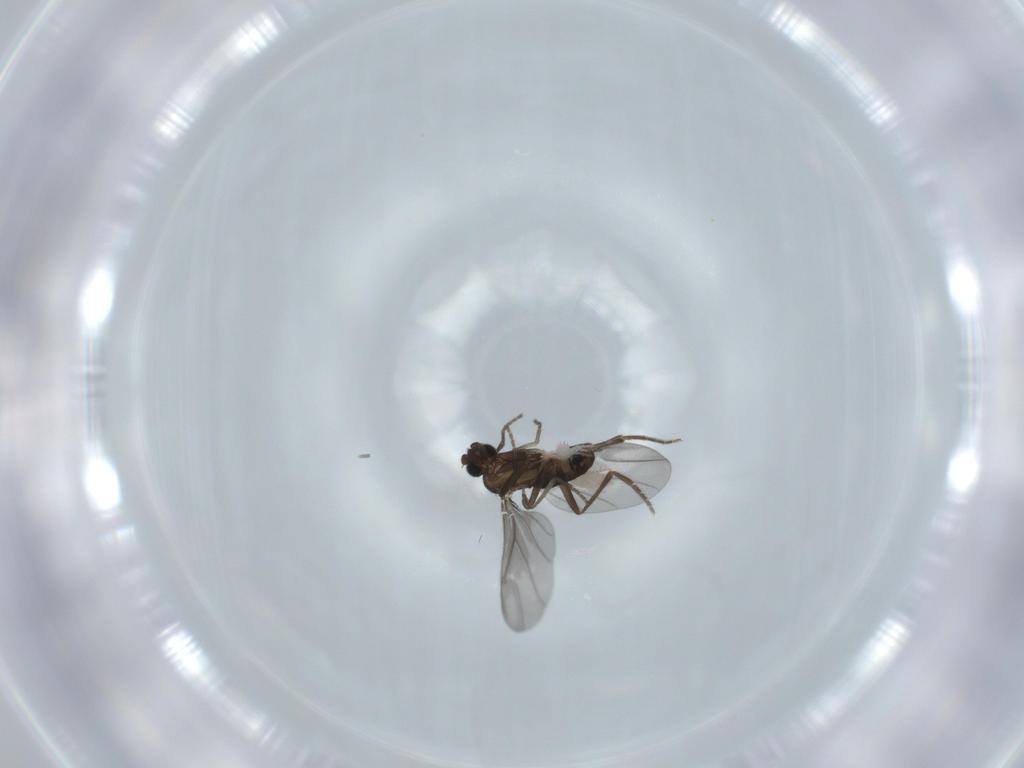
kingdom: Animalia
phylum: Arthropoda
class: Insecta
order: Diptera
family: Phoridae
